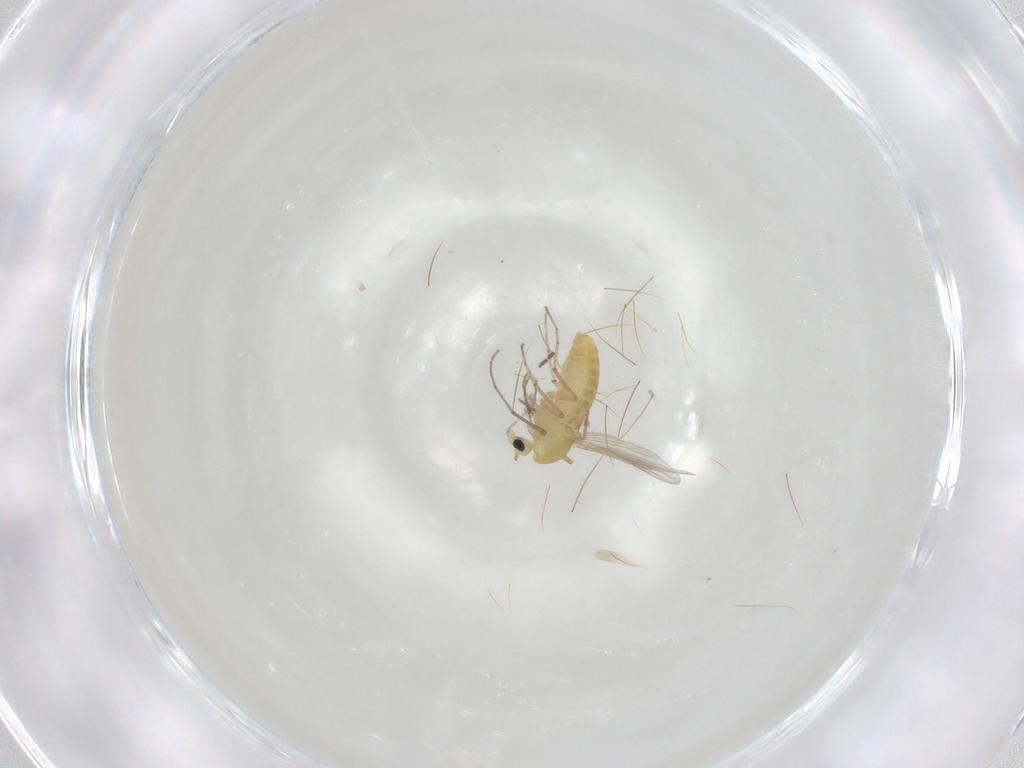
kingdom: Animalia
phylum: Arthropoda
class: Insecta
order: Diptera
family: Chironomidae
